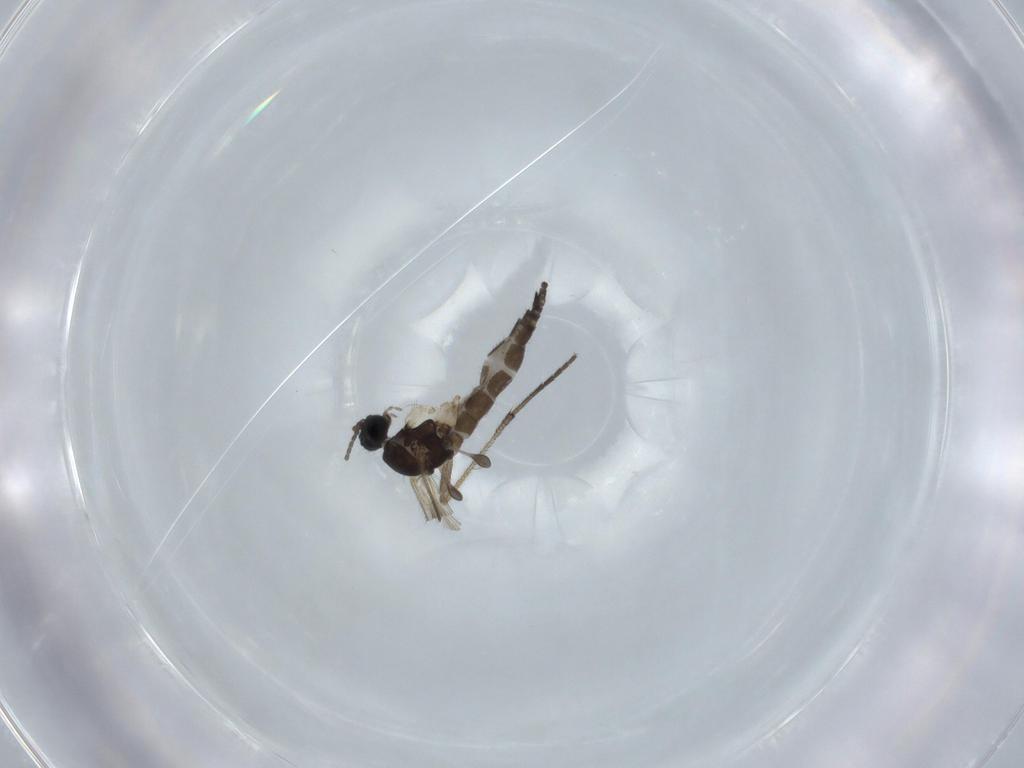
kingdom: Animalia
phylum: Arthropoda
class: Insecta
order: Diptera
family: Sciaridae
